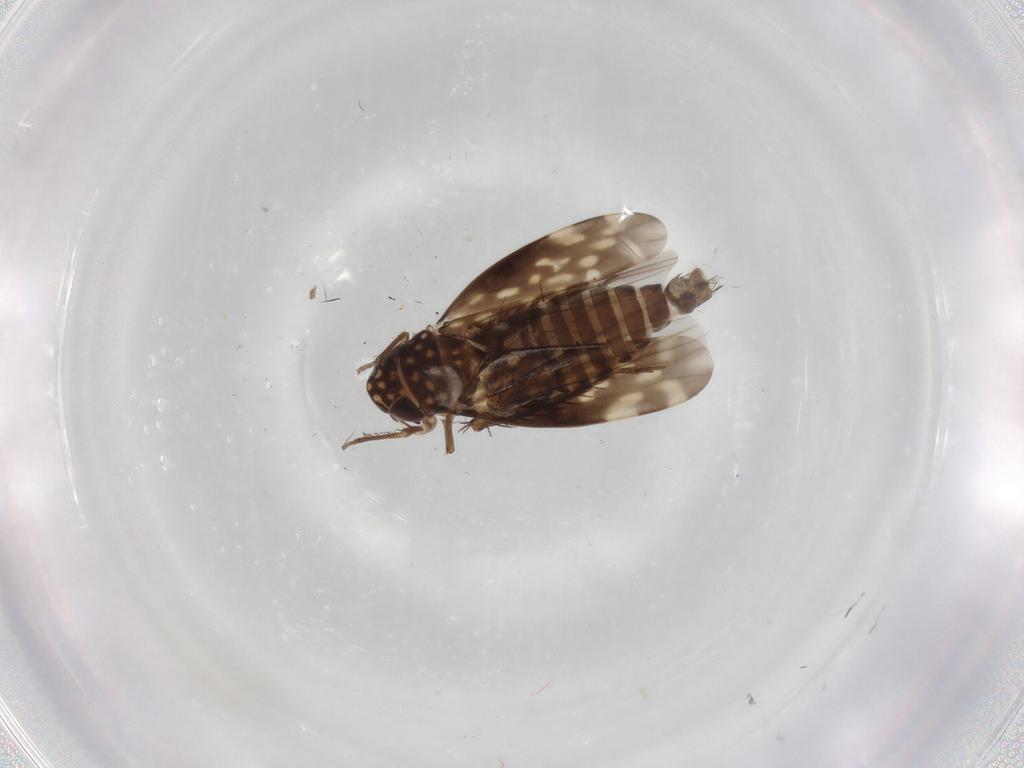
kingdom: Animalia
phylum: Arthropoda
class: Insecta
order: Hemiptera
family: Cicadellidae
